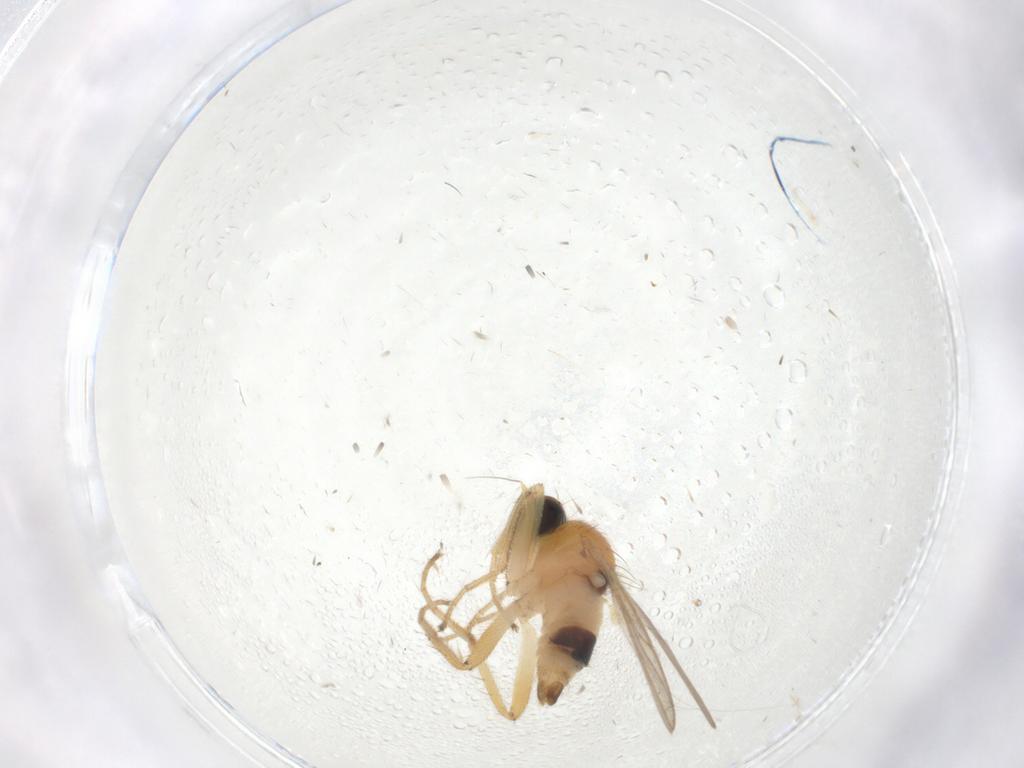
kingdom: Animalia
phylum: Arthropoda
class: Insecta
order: Diptera
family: Hybotidae
